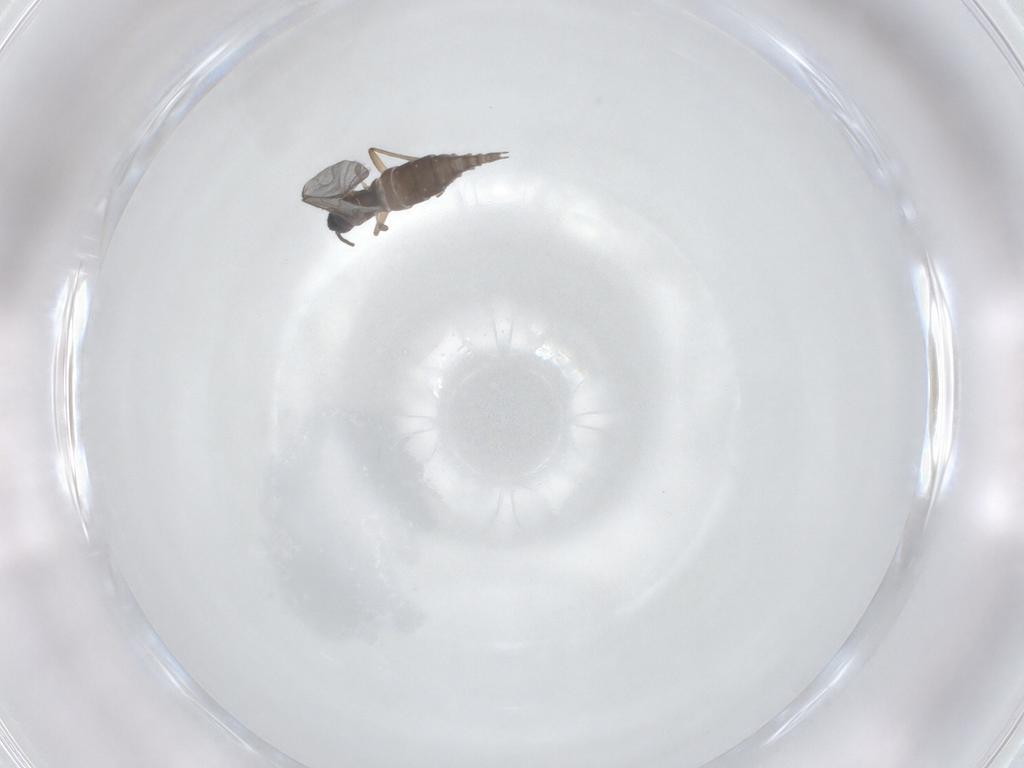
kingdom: Animalia
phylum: Arthropoda
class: Insecta
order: Diptera
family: Sciaridae
